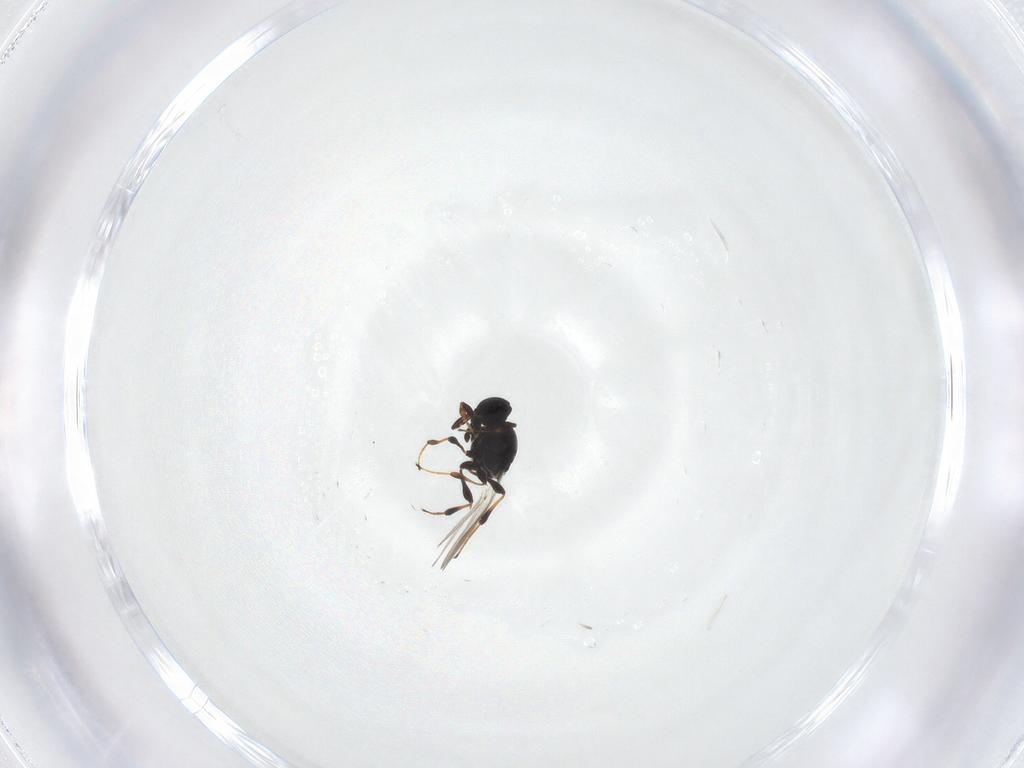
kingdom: Animalia
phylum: Arthropoda
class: Insecta
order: Hymenoptera
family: Platygastridae
